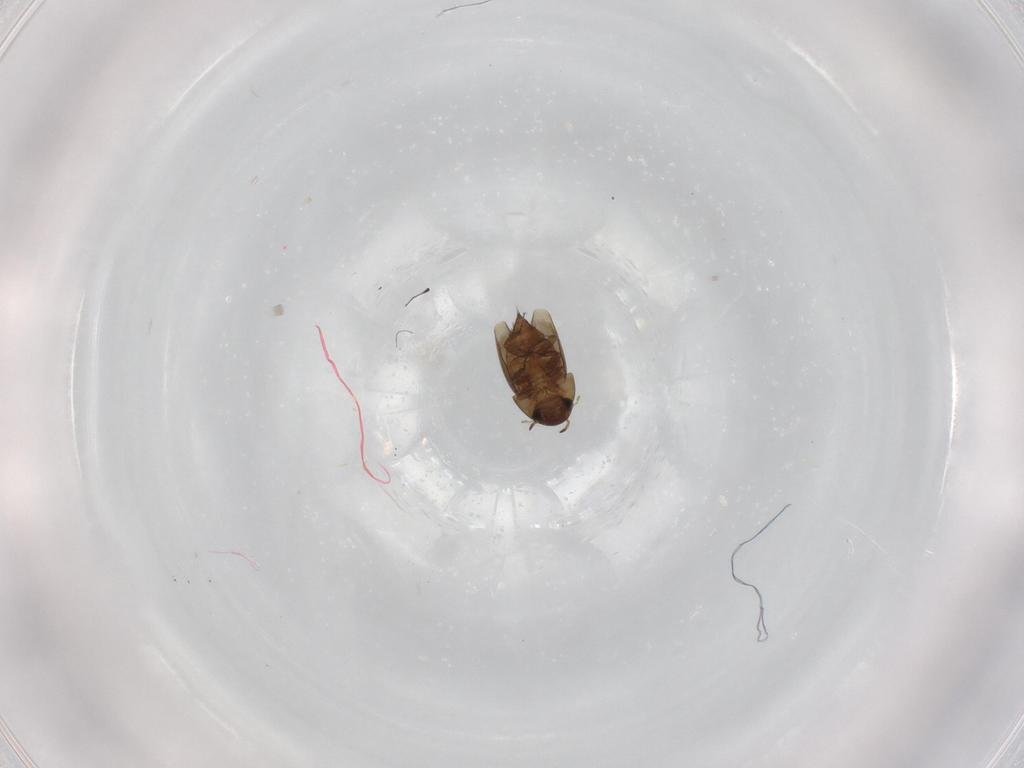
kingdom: Animalia
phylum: Arthropoda
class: Insecta
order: Coleoptera
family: Hydraenidae
